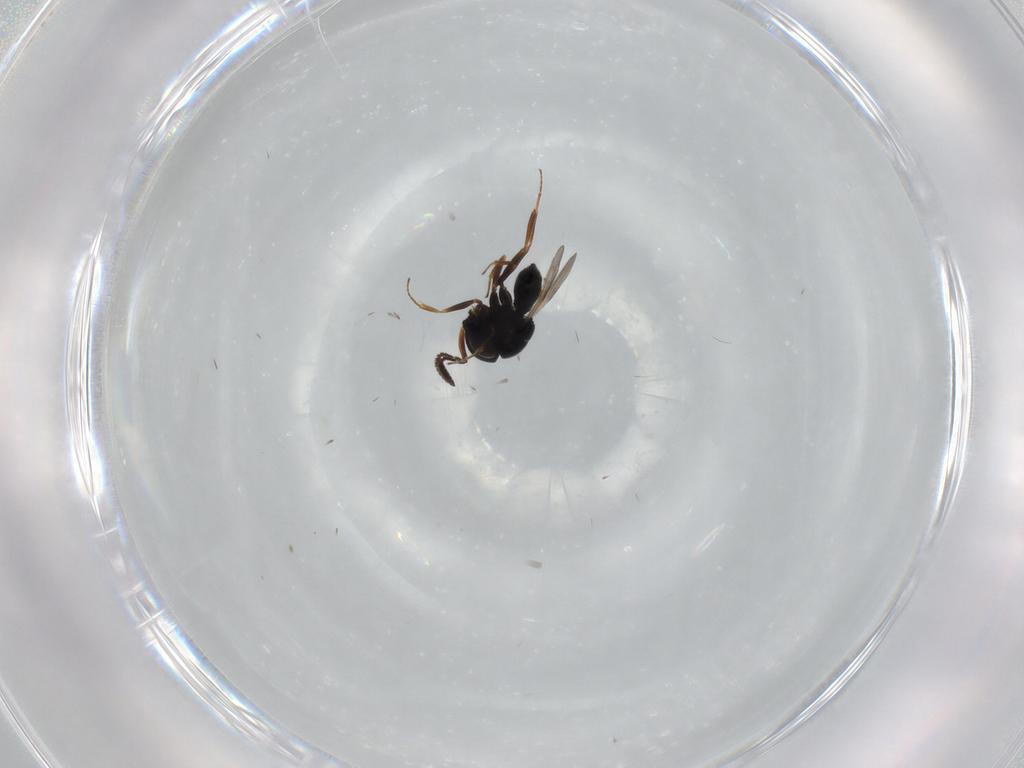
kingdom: Animalia
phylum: Arthropoda
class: Insecta
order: Hymenoptera
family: Scelionidae
